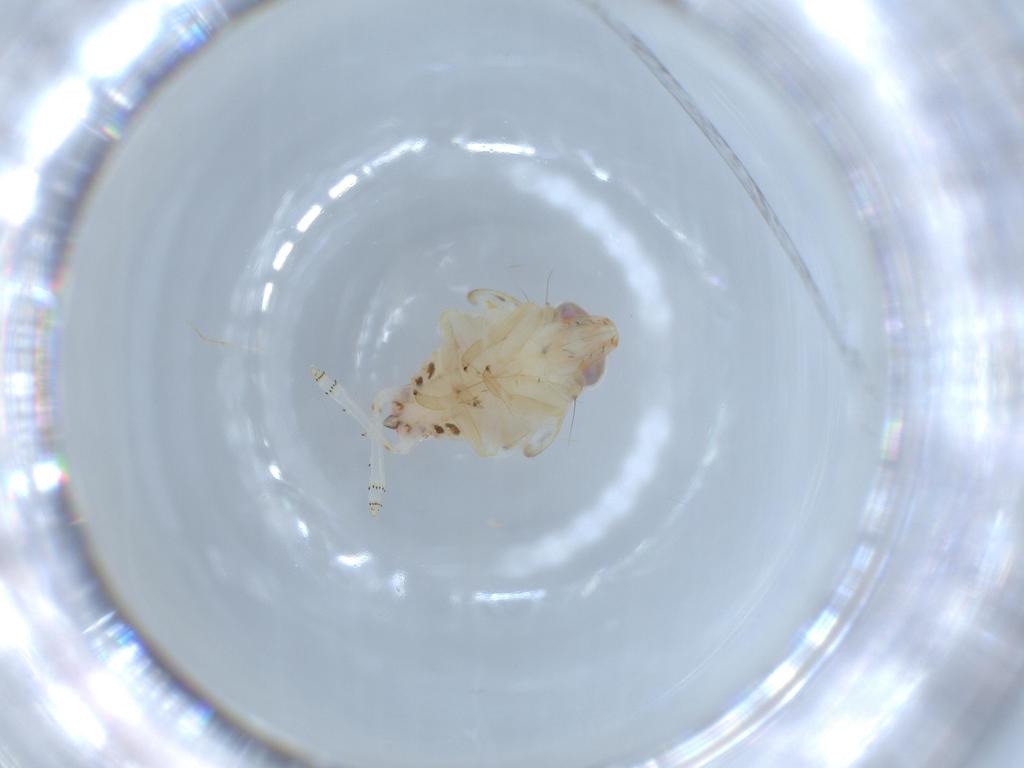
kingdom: Animalia
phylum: Arthropoda
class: Insecta
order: Hemiptera
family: Nogodinidae
